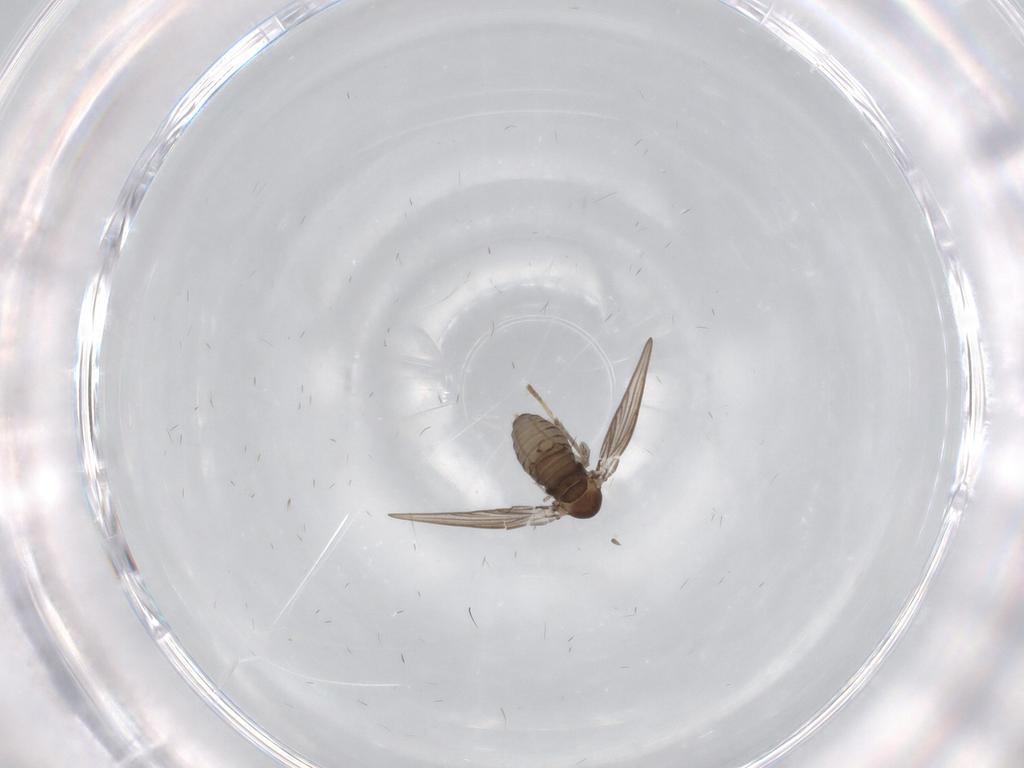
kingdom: Animalia
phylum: Arthropoda
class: Insecta
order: Diptera
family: Psychodidae
